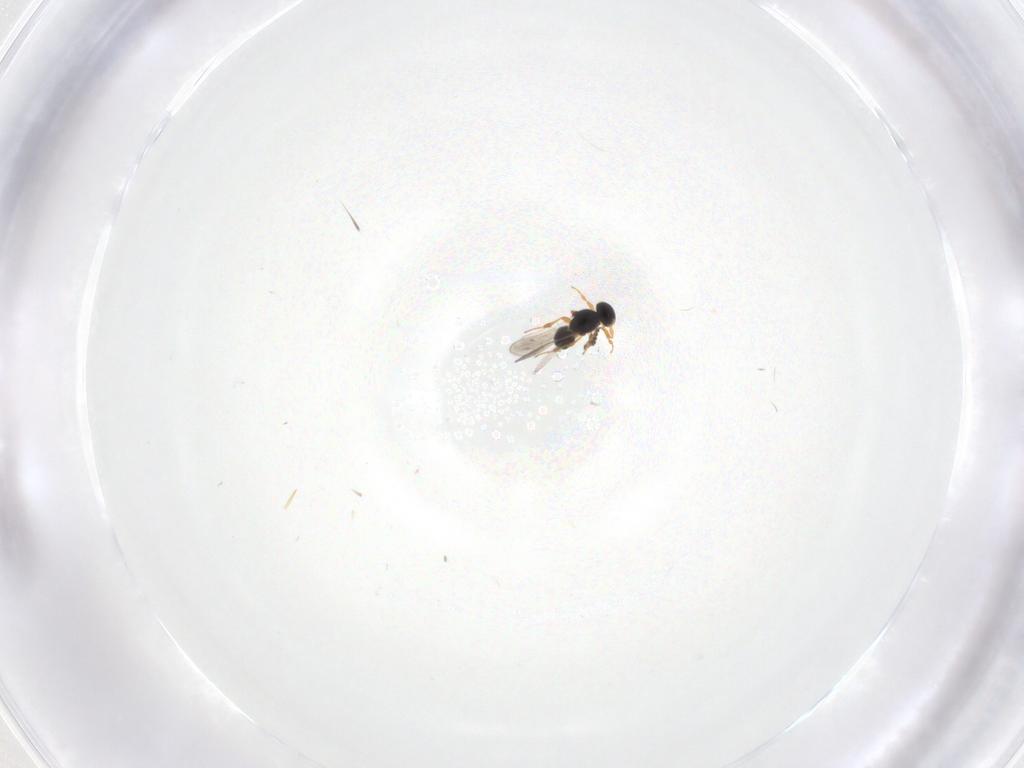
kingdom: Animalia
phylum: Arthropoda
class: Insecta
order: Hymenoptera
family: Platygastridae
